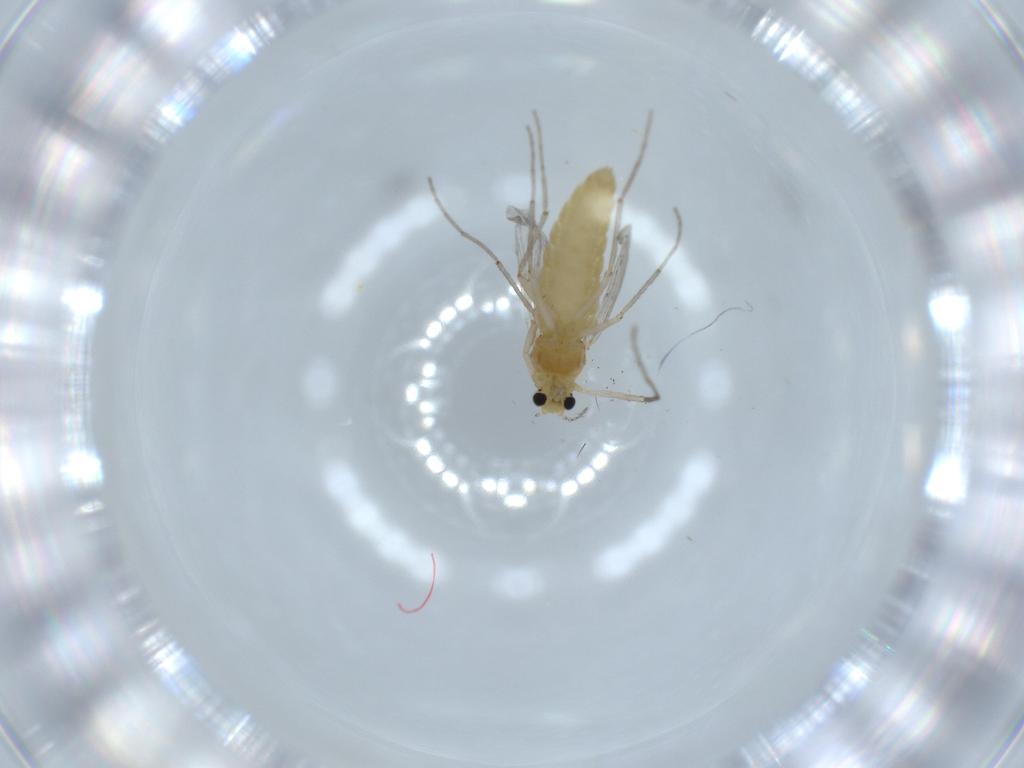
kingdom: Animalia
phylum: Arthropoda
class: Insecta
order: Diptera
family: Chironomidae
